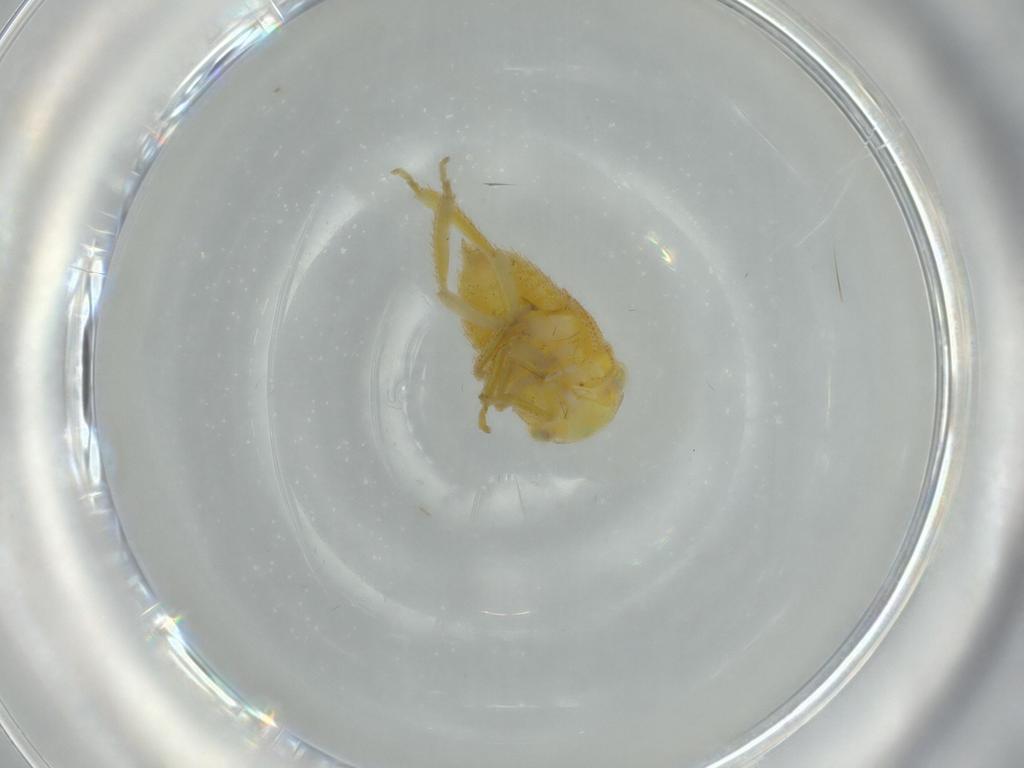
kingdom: Animalia
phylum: Arthropoda
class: Insecta
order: Hemiptera
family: Cicadellidae
